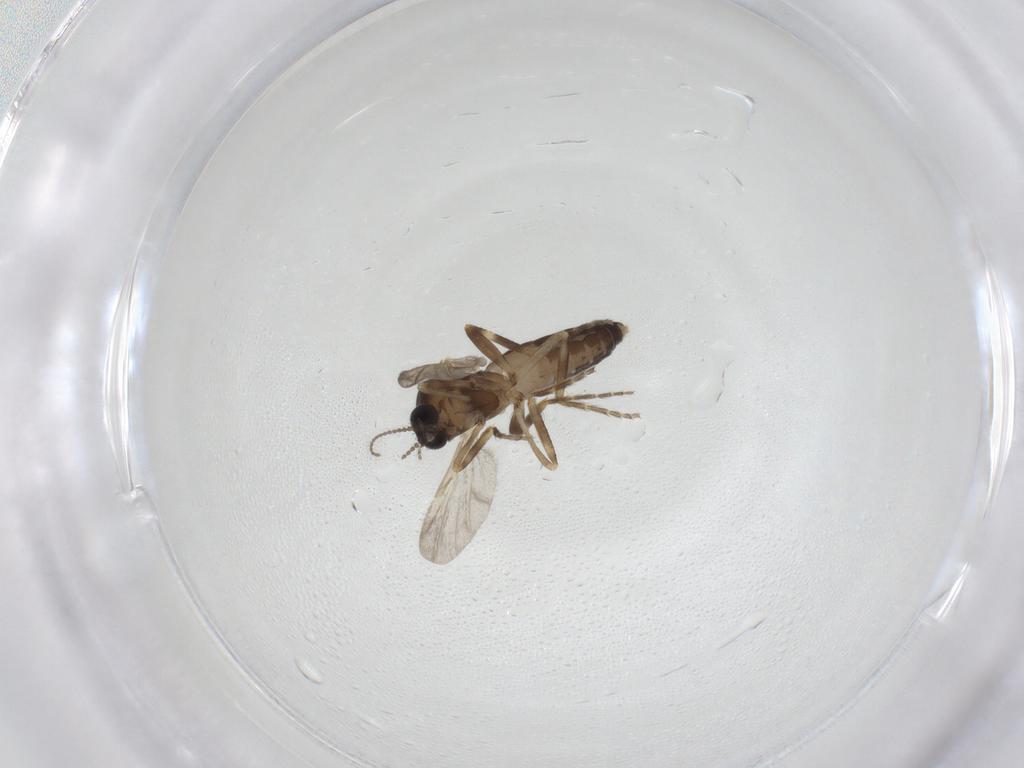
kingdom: Animalia
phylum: Arthropoda
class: Insecta
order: Diptera
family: Ceratopogonidae
